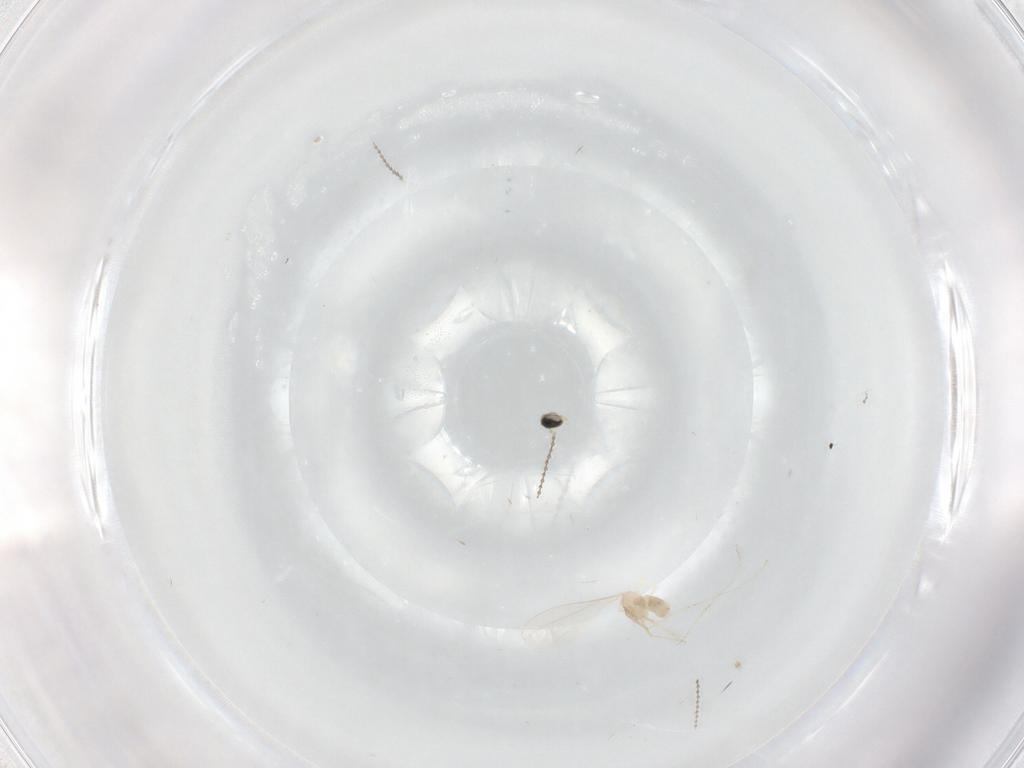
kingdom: Animalia
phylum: Arthropoda
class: Insecta
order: Diptera
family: Cecidomyiidae
